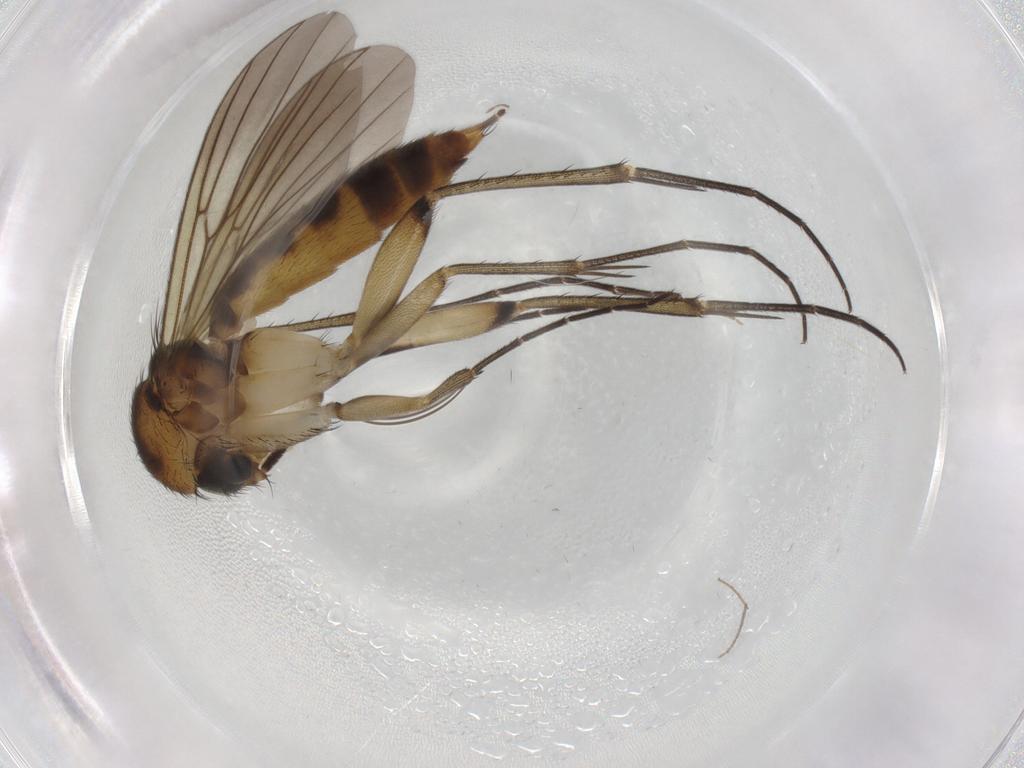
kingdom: Animalia
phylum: Arthropoda
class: Insecta
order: Diptera
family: Mycetophilidae
